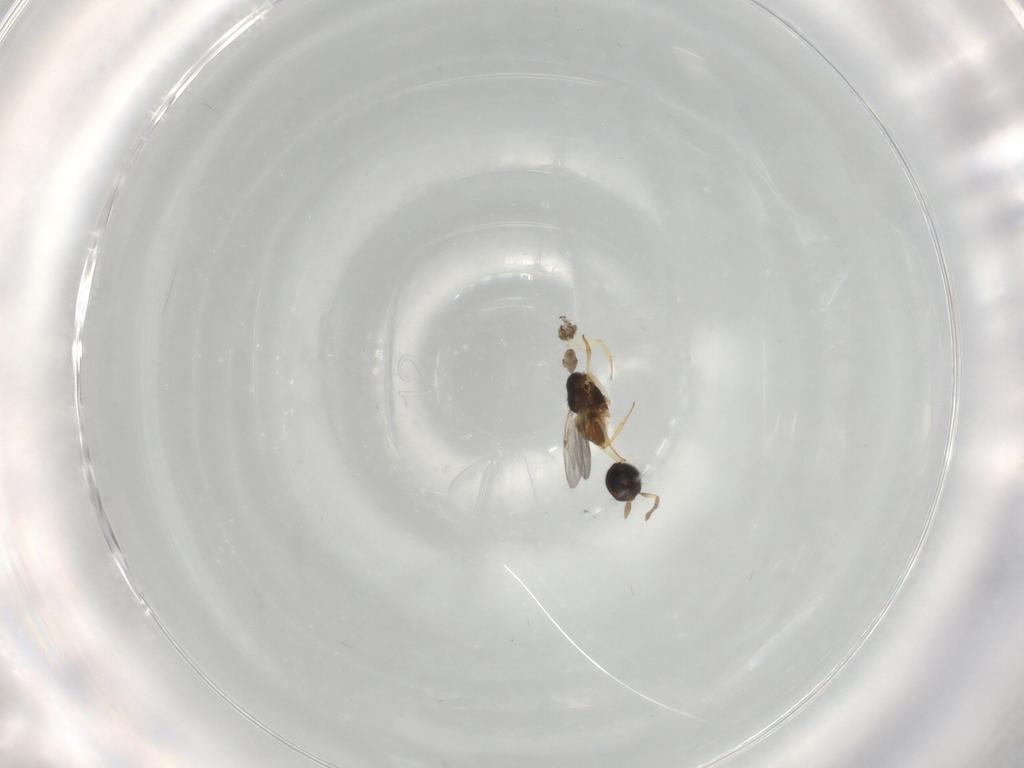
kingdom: Animalia
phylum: Arthropoda
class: Insecta
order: Hymenoptera
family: Encyrtidae
